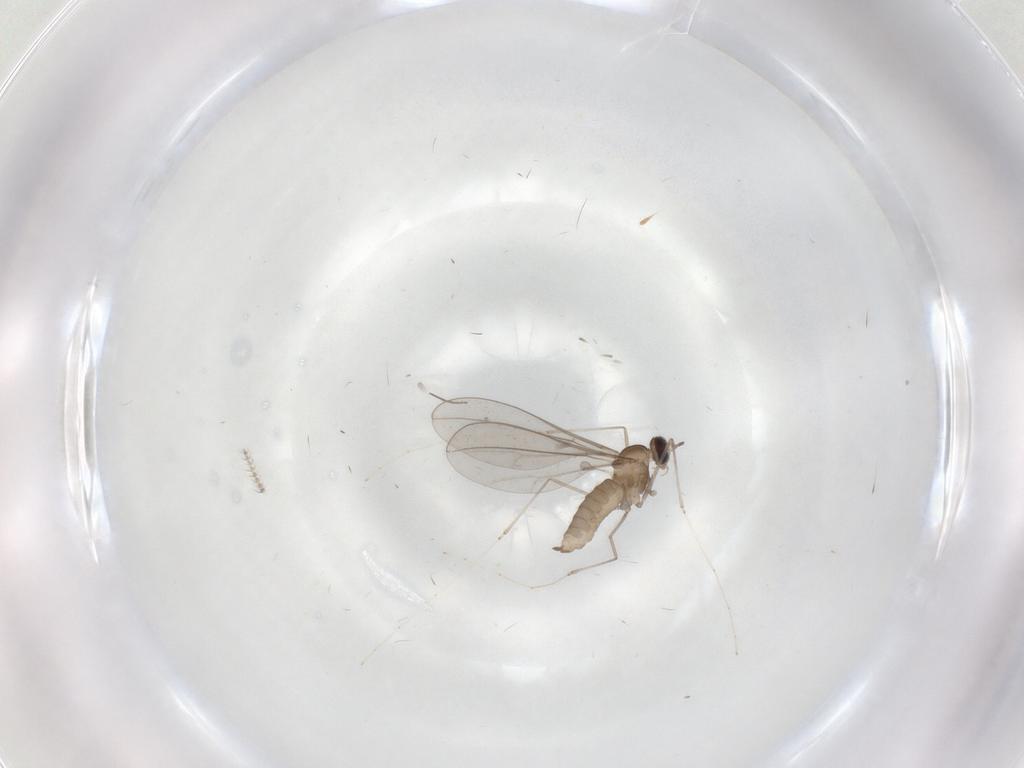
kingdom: Animalia
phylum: Arthropoda
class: Insecta
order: Diptera
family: Ceratopogonidae
